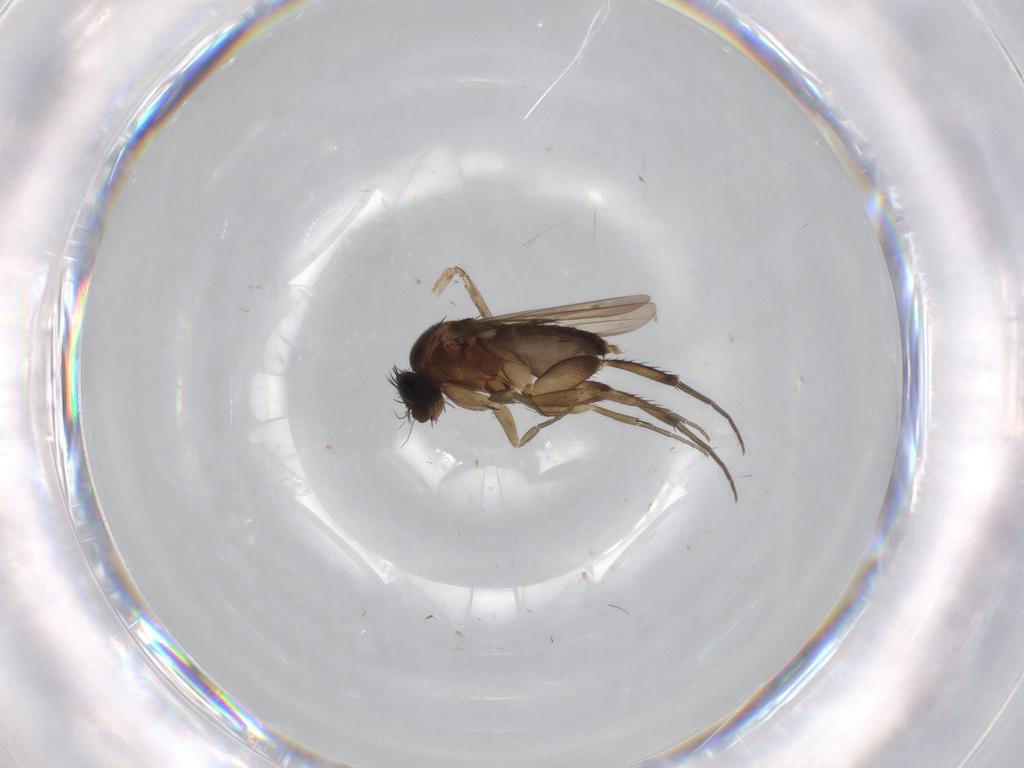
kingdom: Animalia
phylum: Arthropoda
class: Insecta
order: Diptera
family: Phoridae
